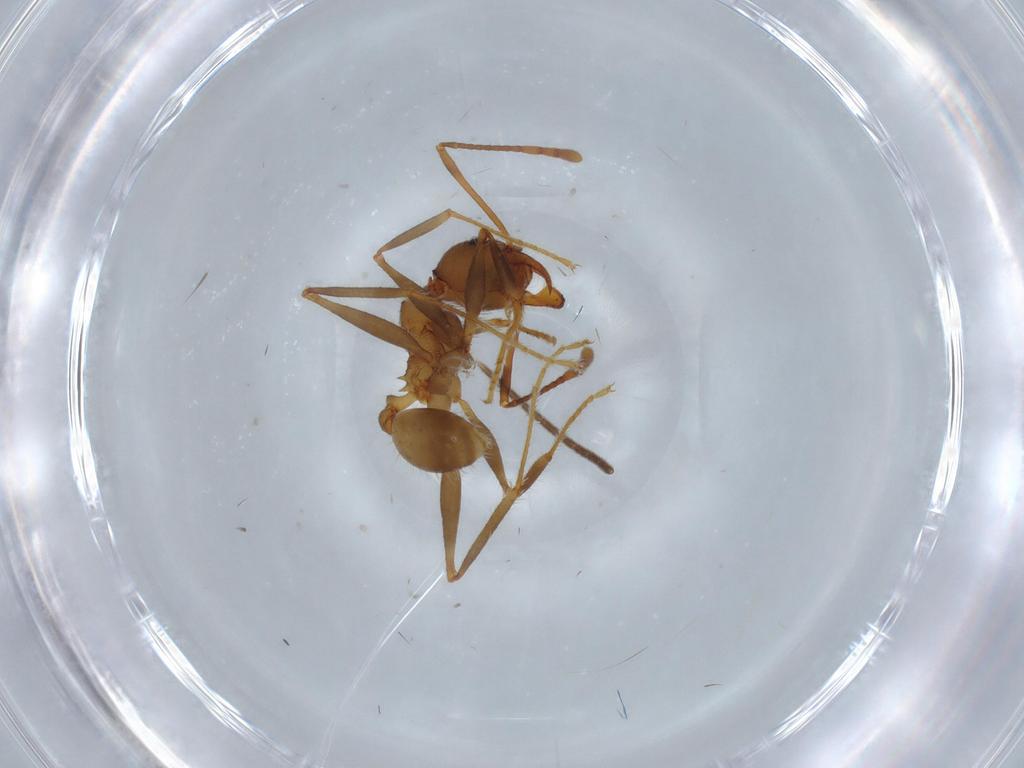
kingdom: Animalia
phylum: Arthropoda
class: Insecta
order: Hymenoptera
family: Formicidae
